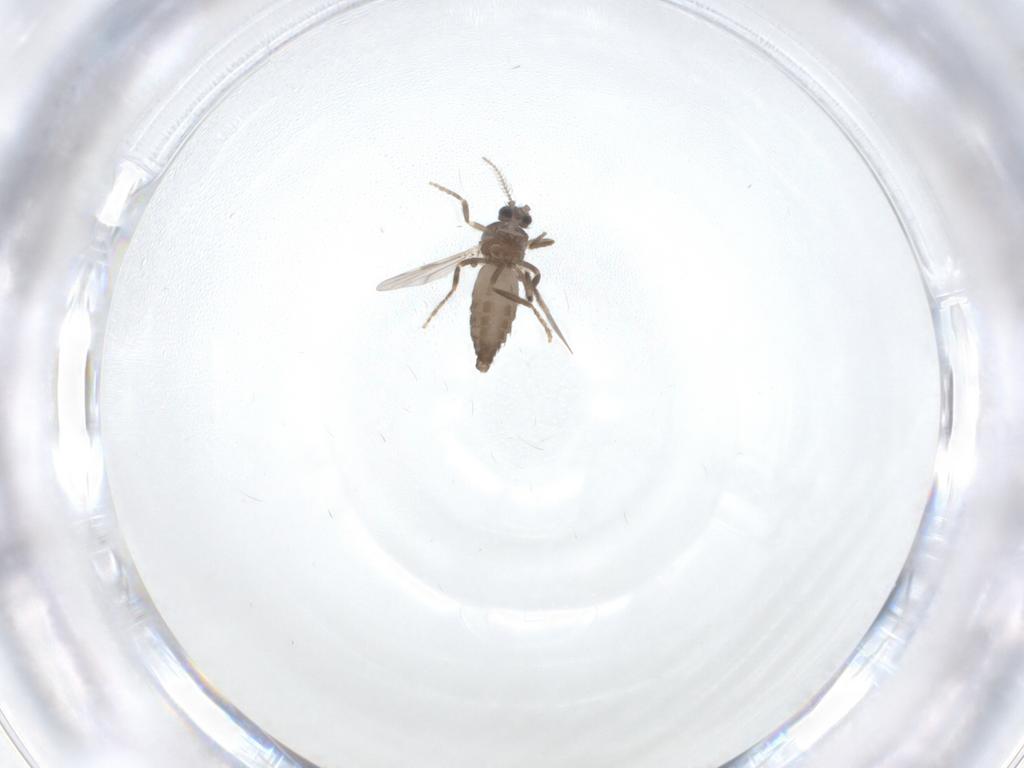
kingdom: Animalia
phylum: Arthropoda
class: Insecta
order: Diptera
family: Ceratopogonidae
